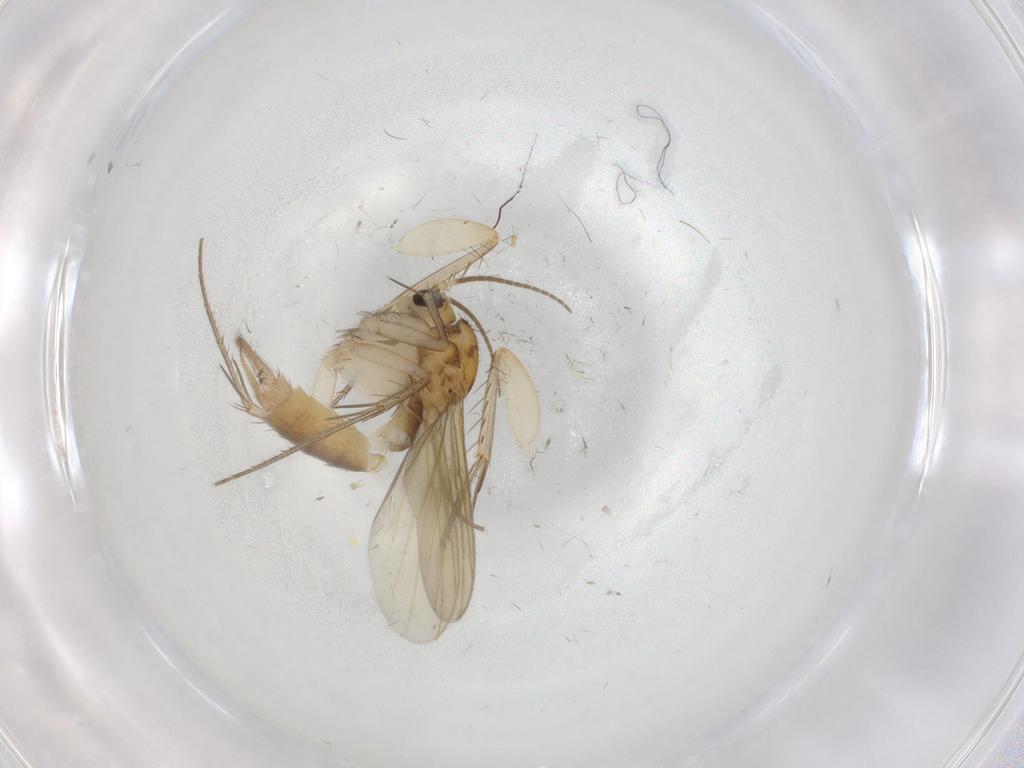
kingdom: Animalia
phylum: Arthropoda
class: Insecta
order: Diptera
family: Mycetophilidae
